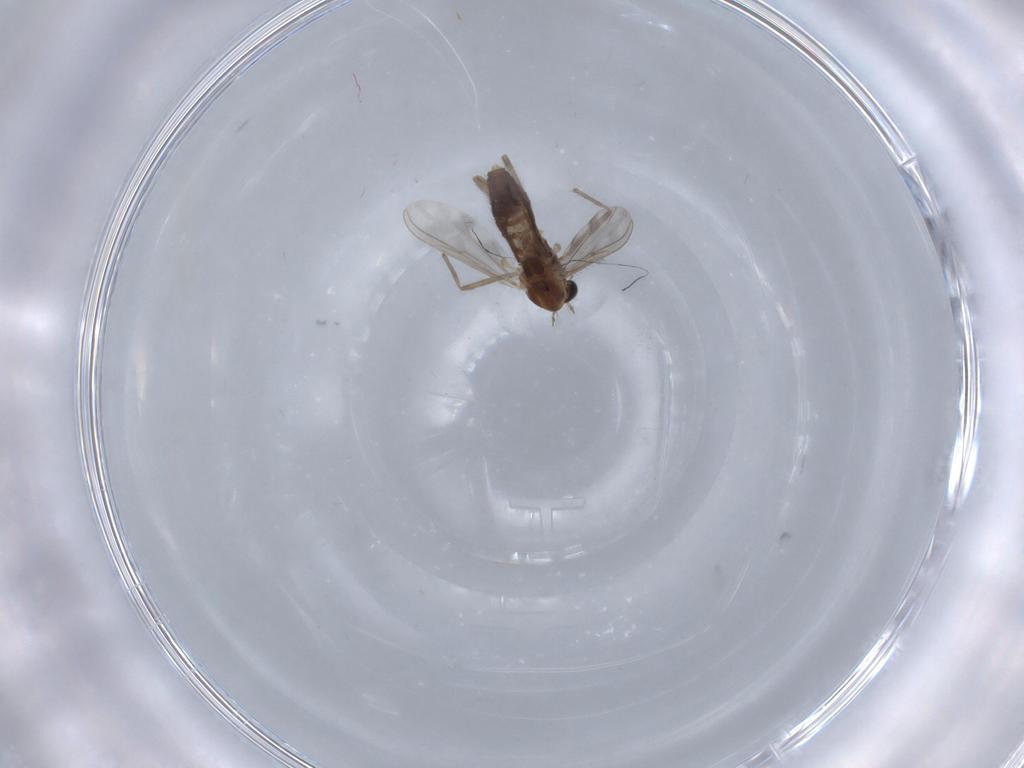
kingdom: Animalia
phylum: Arthropoda
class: Insecta
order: Diptera
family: Chironomidae
